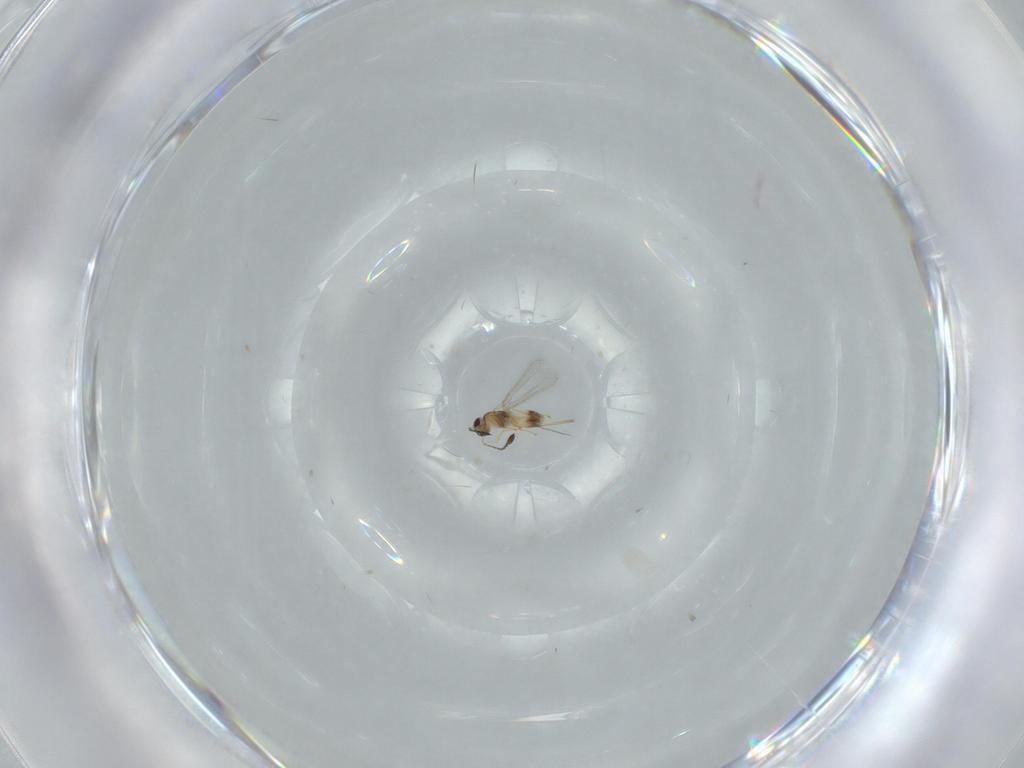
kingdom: Animalia
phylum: Arthropoda
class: Insecta
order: Hymenoptera
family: Mymaridae
